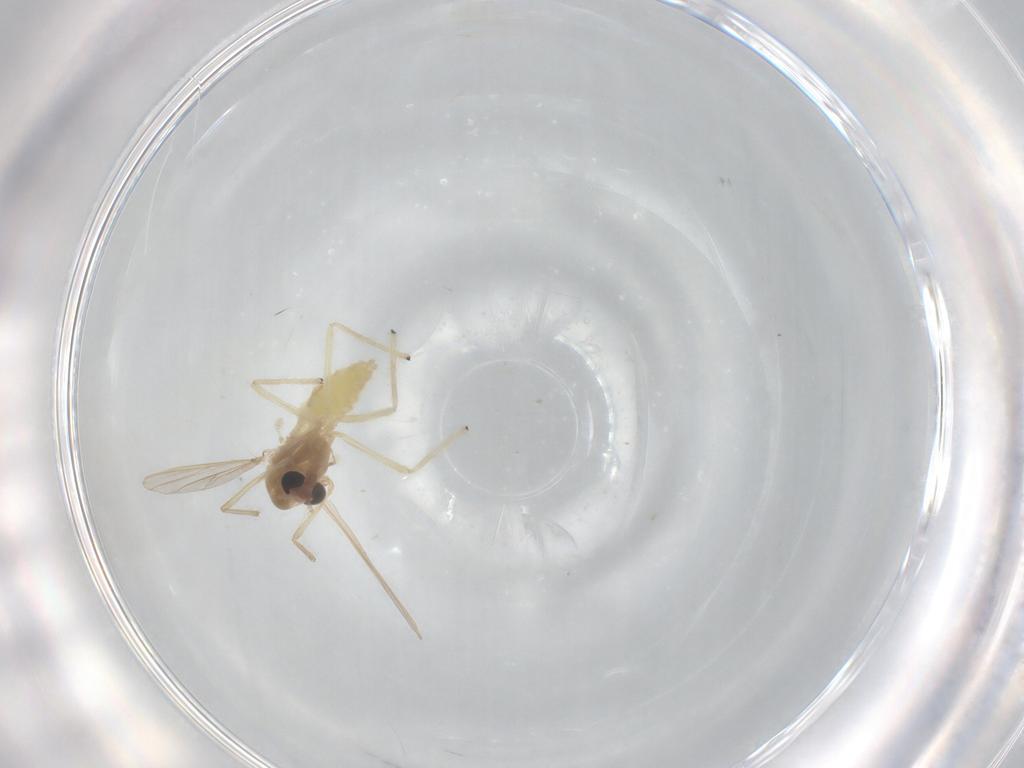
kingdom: Animalia
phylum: Arthropoda
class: Insecta
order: Diptera
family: Chironomidae
